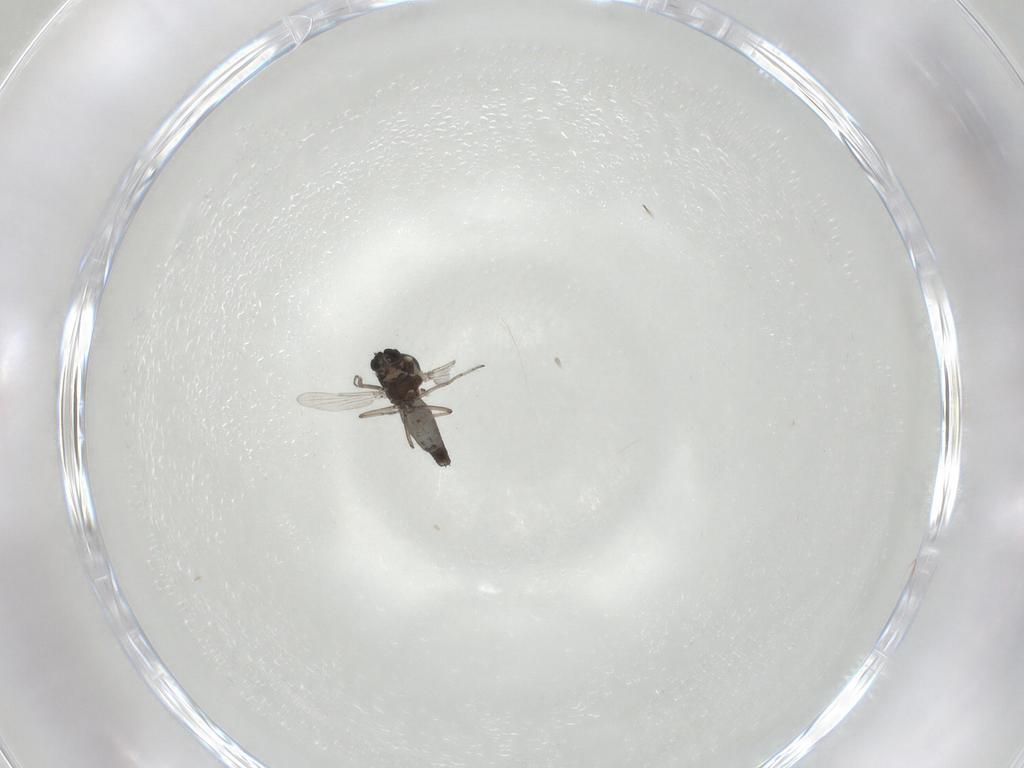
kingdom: Animalia
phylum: Arthropoda
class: Insecta
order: Diptera
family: Ceratopogonidae
